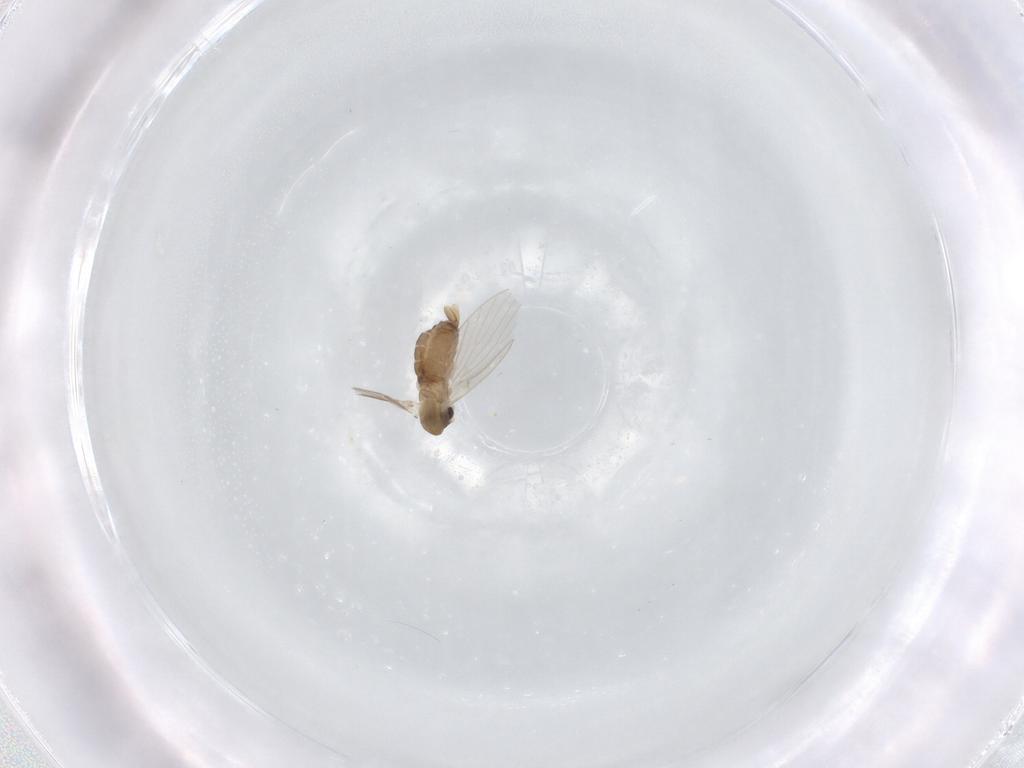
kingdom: Animalia
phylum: Arthropoda
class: Insecta
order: Diptera
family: Psychodidae
